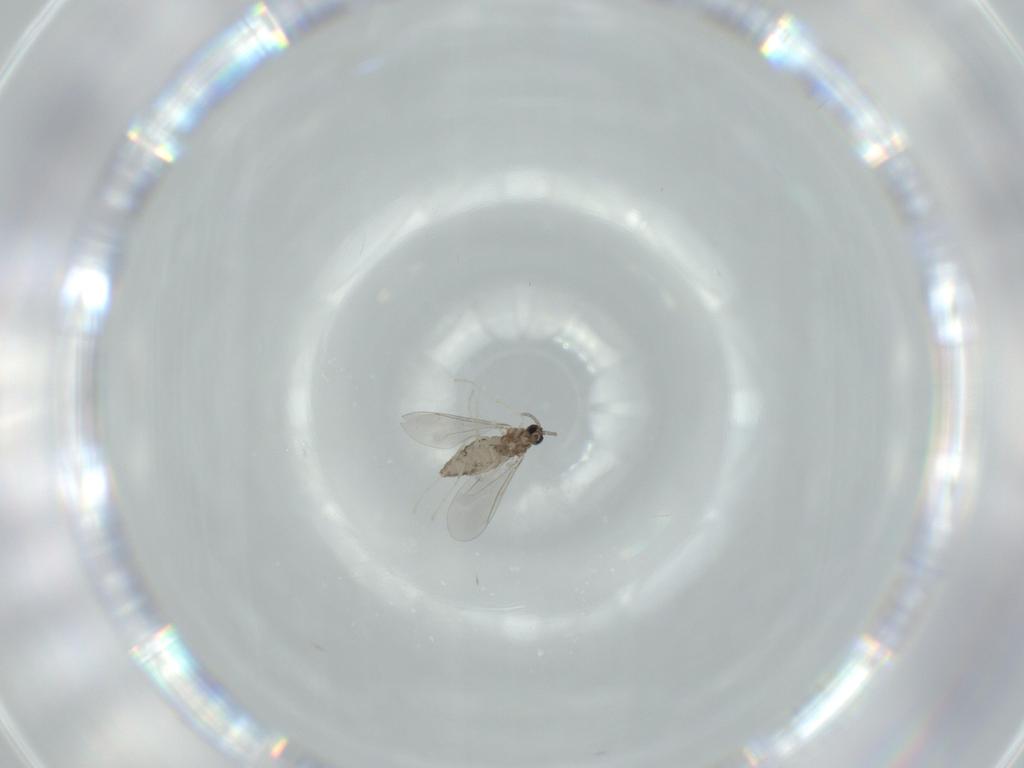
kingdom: Animalia
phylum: Arthropoda
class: Insecta
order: Diptera
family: Cecidomyiidae
